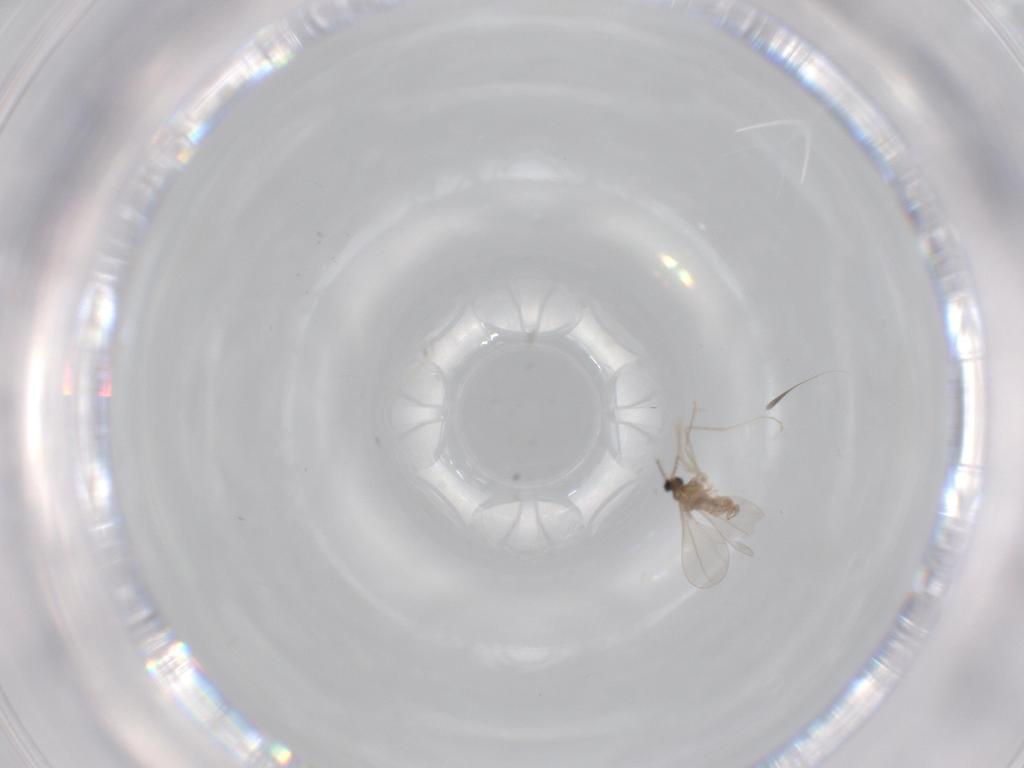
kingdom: Animalia
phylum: Arthropoda
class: Insecta
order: Diptera
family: Cecidomyiidae
